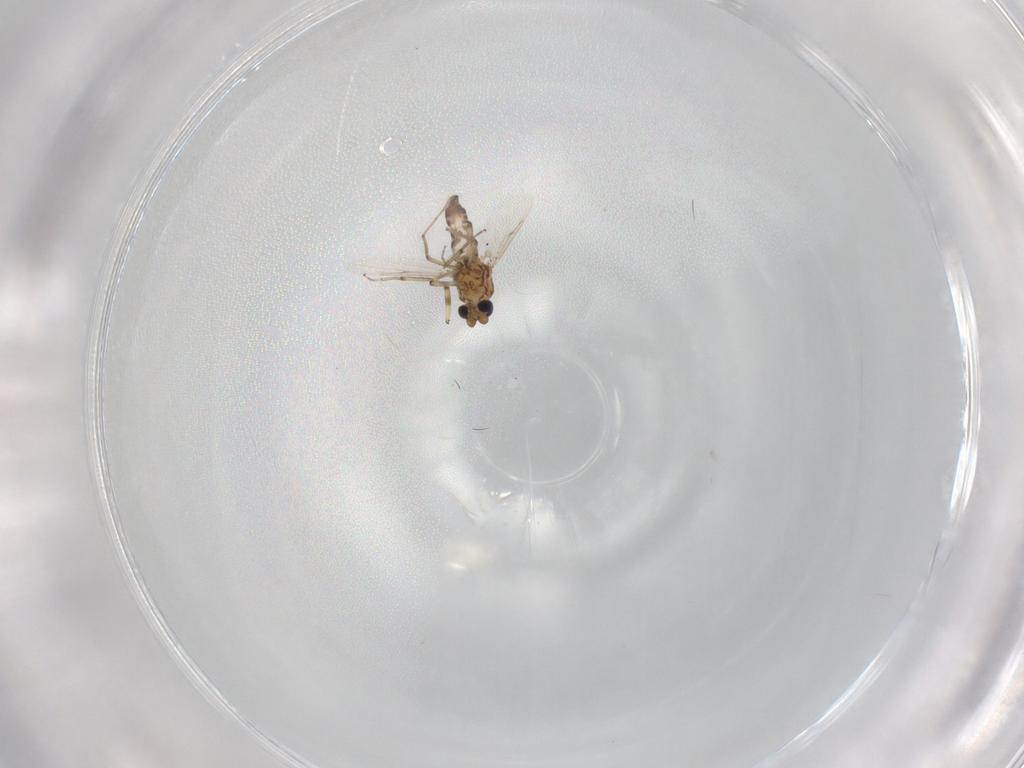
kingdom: Animalia
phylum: Arthropoda
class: Insecta
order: Diptera
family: Ceratopogonidae
